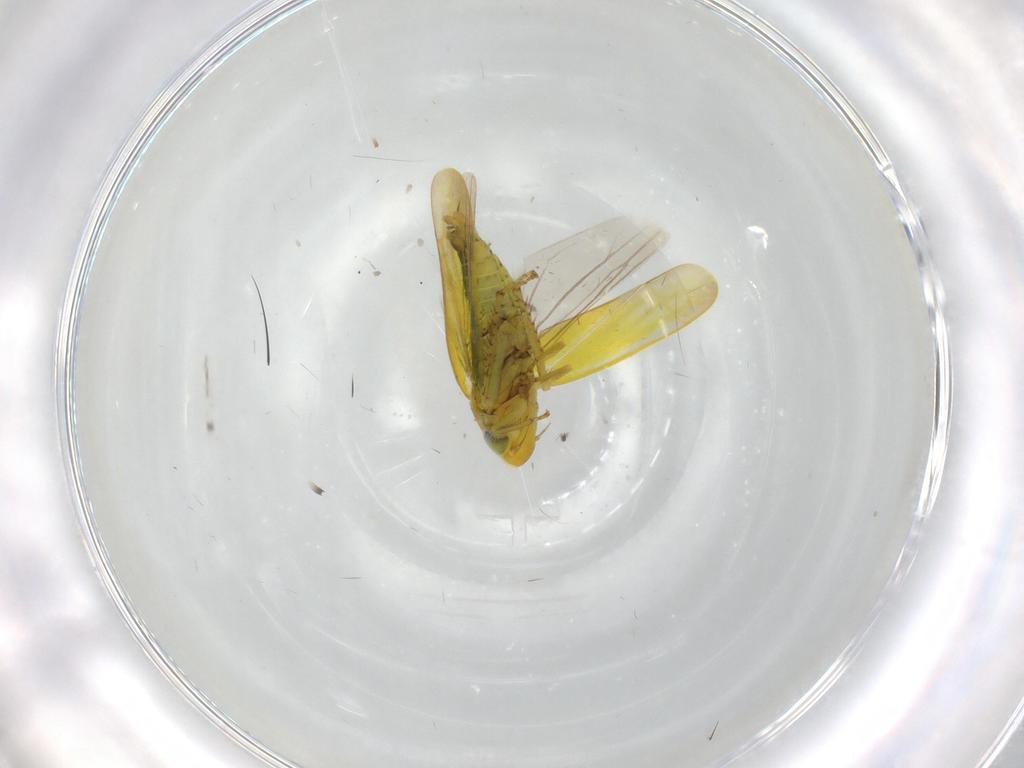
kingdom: Animalia
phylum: Arthropoda
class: Insecta
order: Hemiptera
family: Cicadellidae
